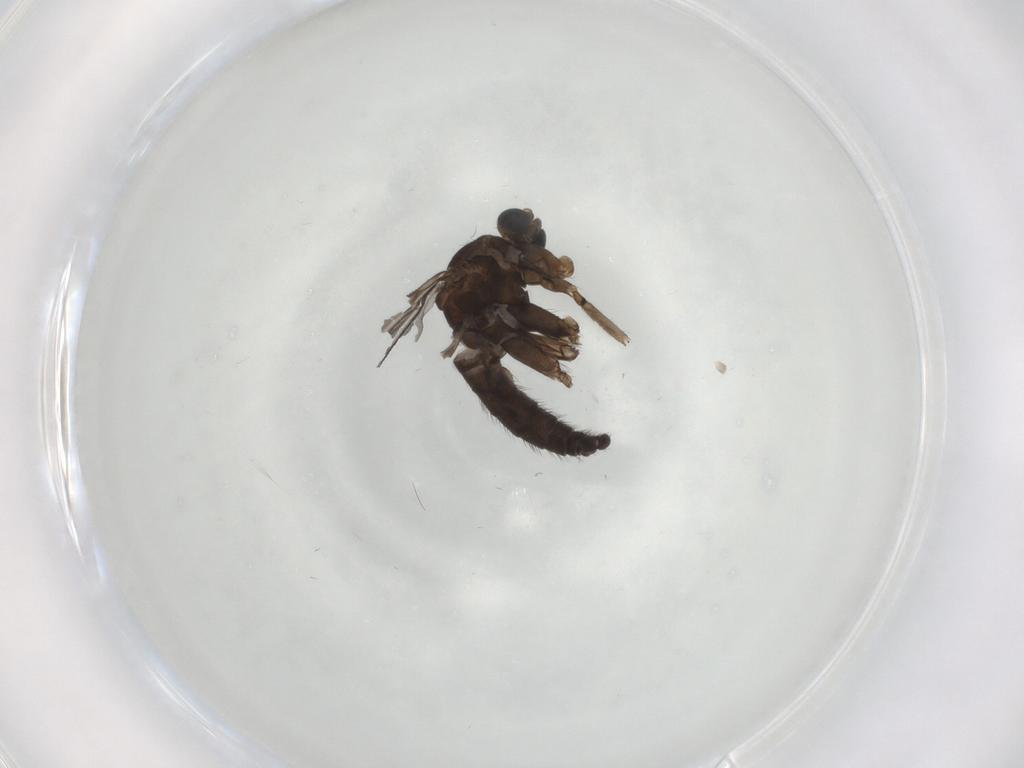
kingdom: Animalia
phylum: Arthropoda
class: Insecta
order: Diptera
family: Sciaridae
